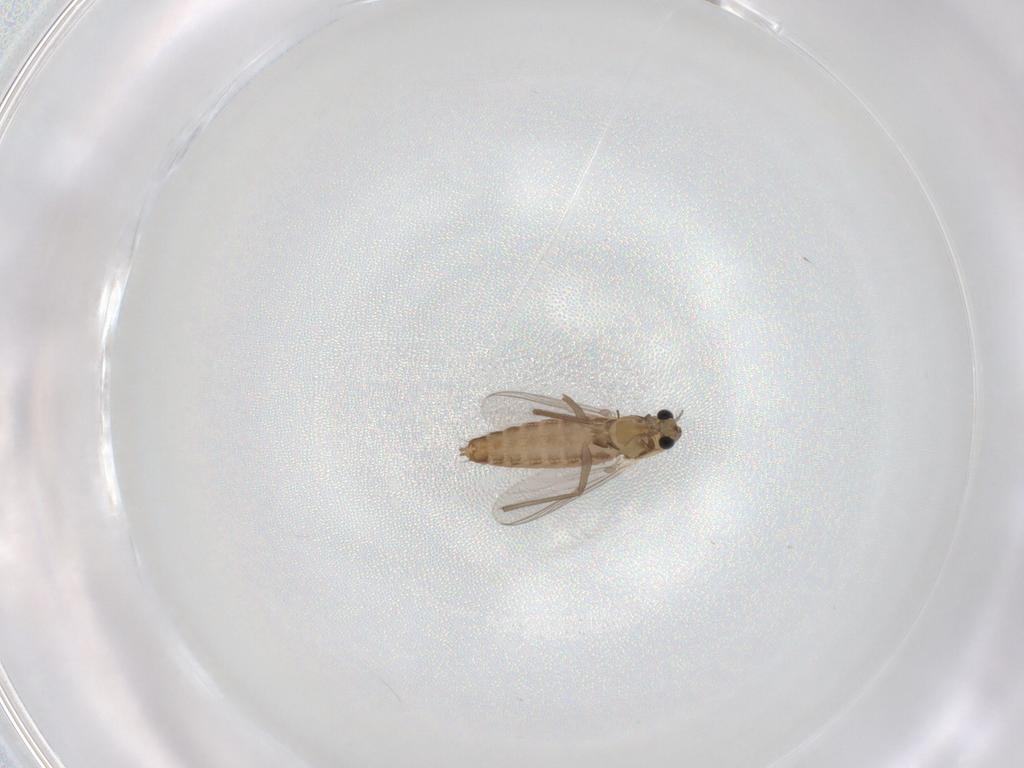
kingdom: Animalia
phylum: Arthropoda
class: Insecta
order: Diptera
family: Chironomidae
